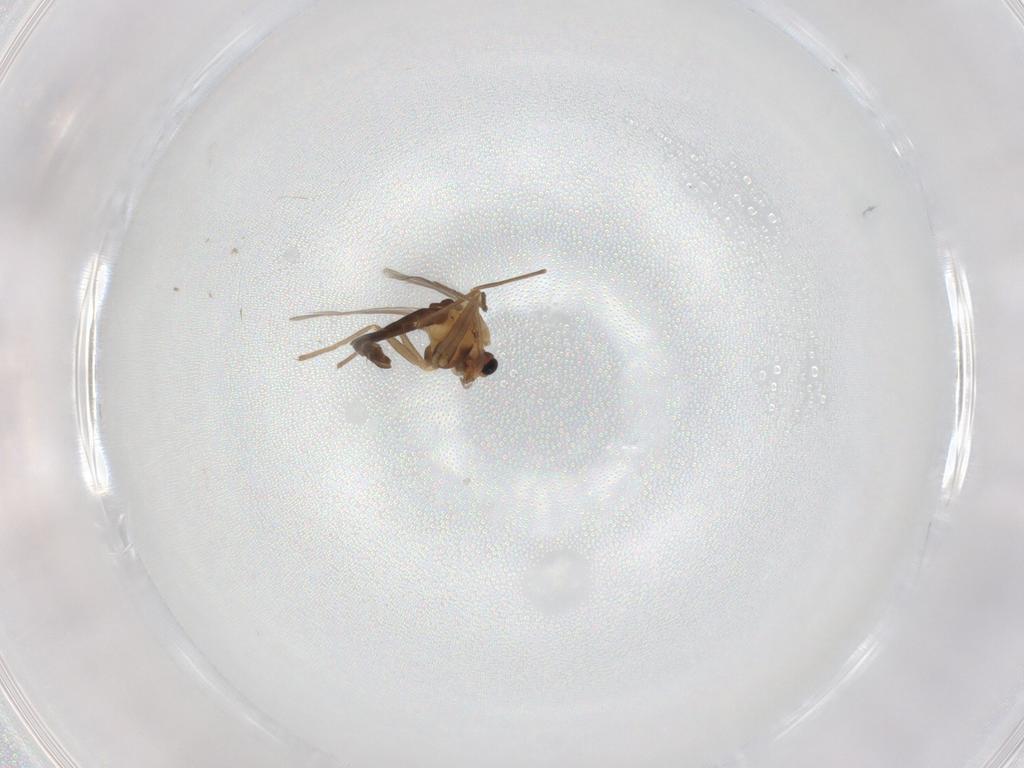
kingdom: Animalia
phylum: Arthropoda
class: Insecta
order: Diptera
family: Chironomidae
